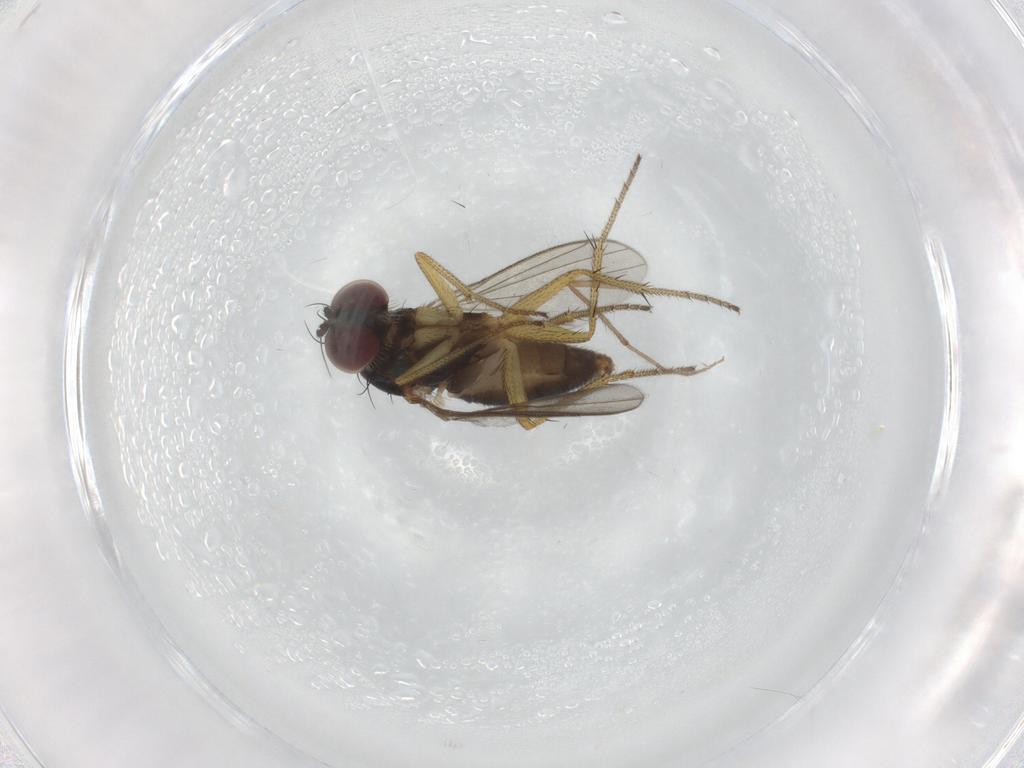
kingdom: Animalia
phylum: Arthropoda
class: Insecta
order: Diptera
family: Dolichopodidae
